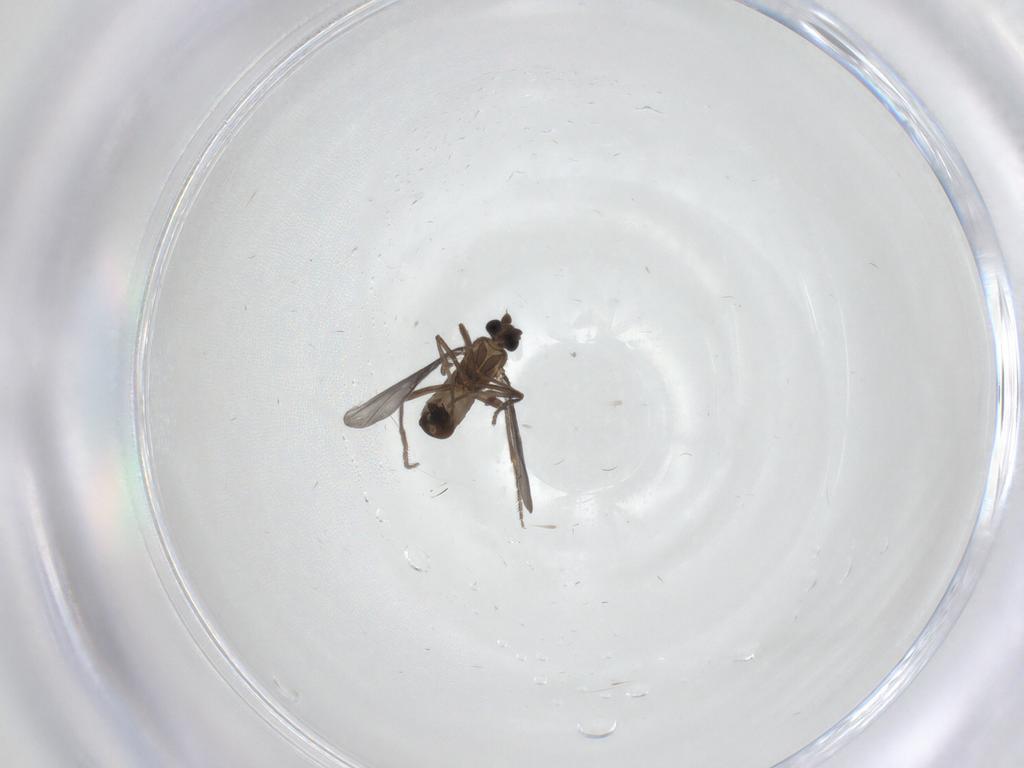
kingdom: Animalia
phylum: Arthropoda
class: Insecta
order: Diptera
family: Phoridae
